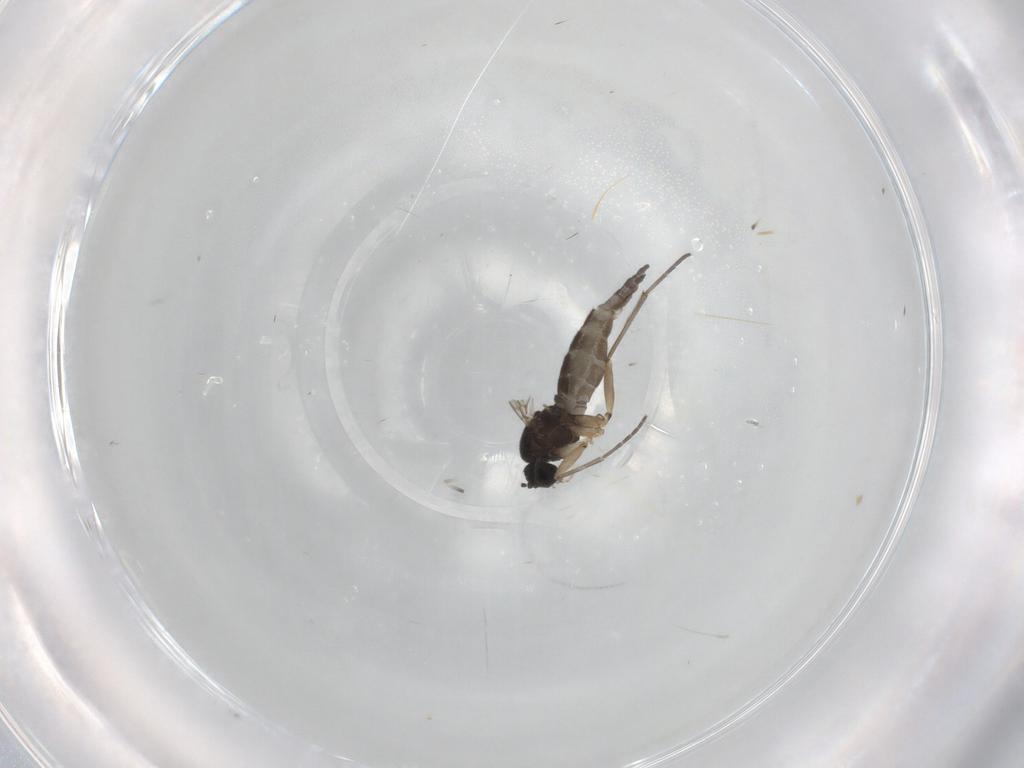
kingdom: Animalia
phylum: Arthropoda
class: Insecta
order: Diptera
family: Sciaridae
